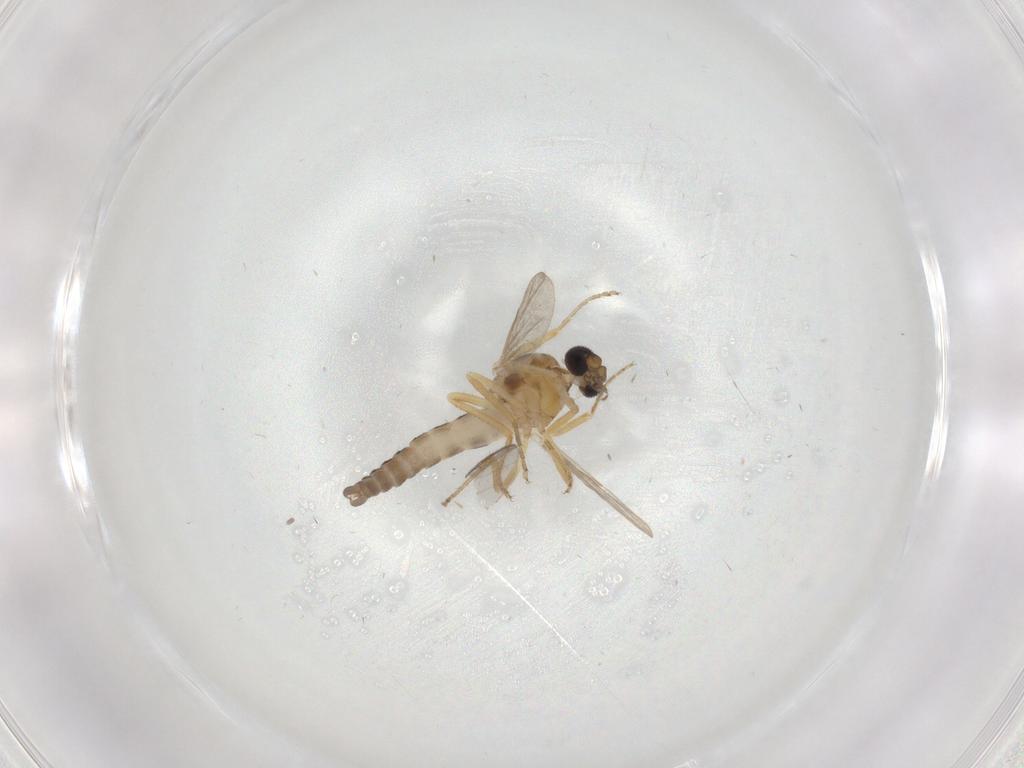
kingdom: Animalia
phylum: Arthropoda
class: Insecta
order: Diptera
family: Ceratopogonidae
